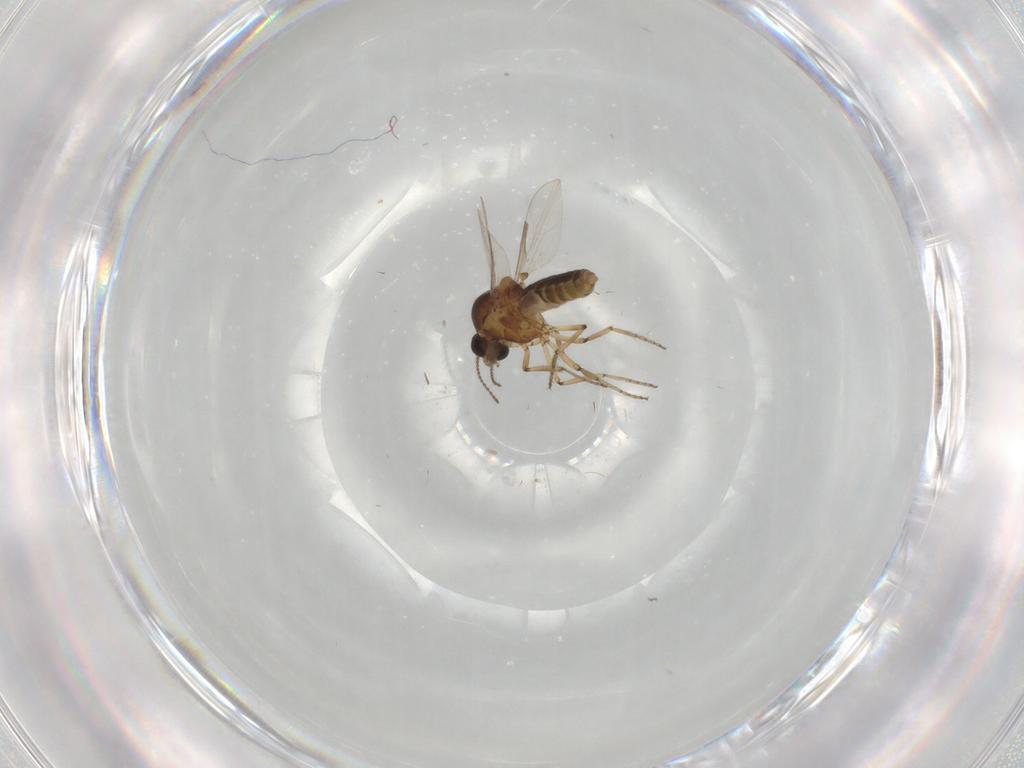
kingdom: Animalia
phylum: Arthropoda
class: Insecta
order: Diptera
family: Ceratopogonidae
